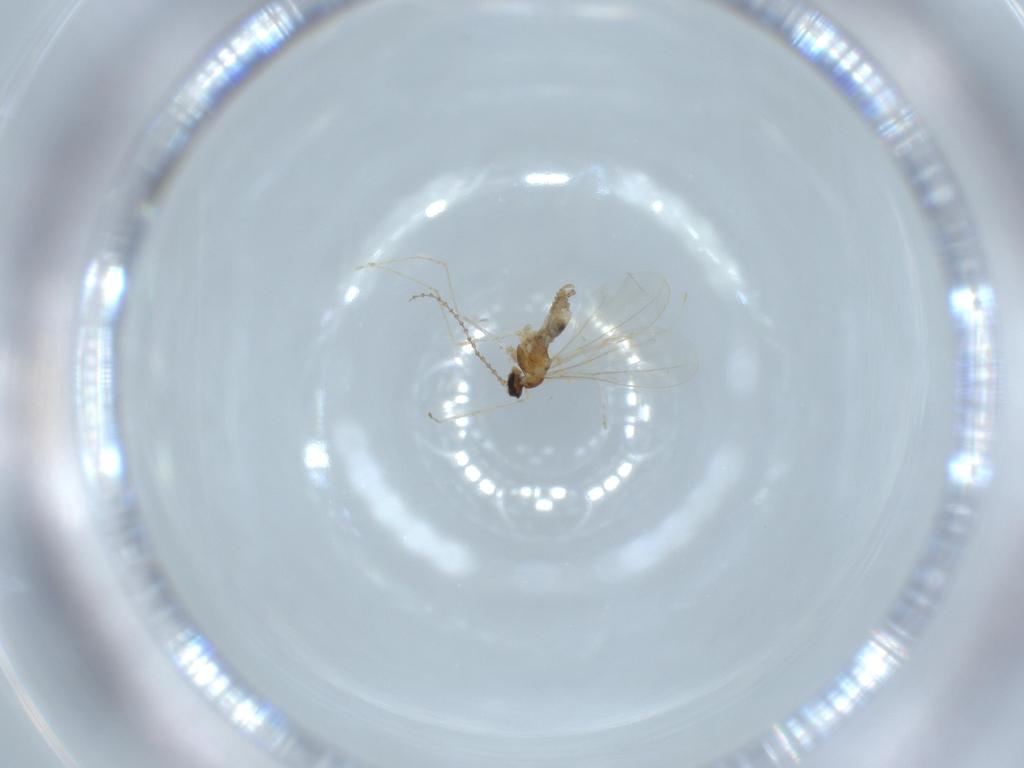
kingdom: Animalia
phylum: Arthropoda
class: Insecta
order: Diptera
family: Cecidomyiidae
